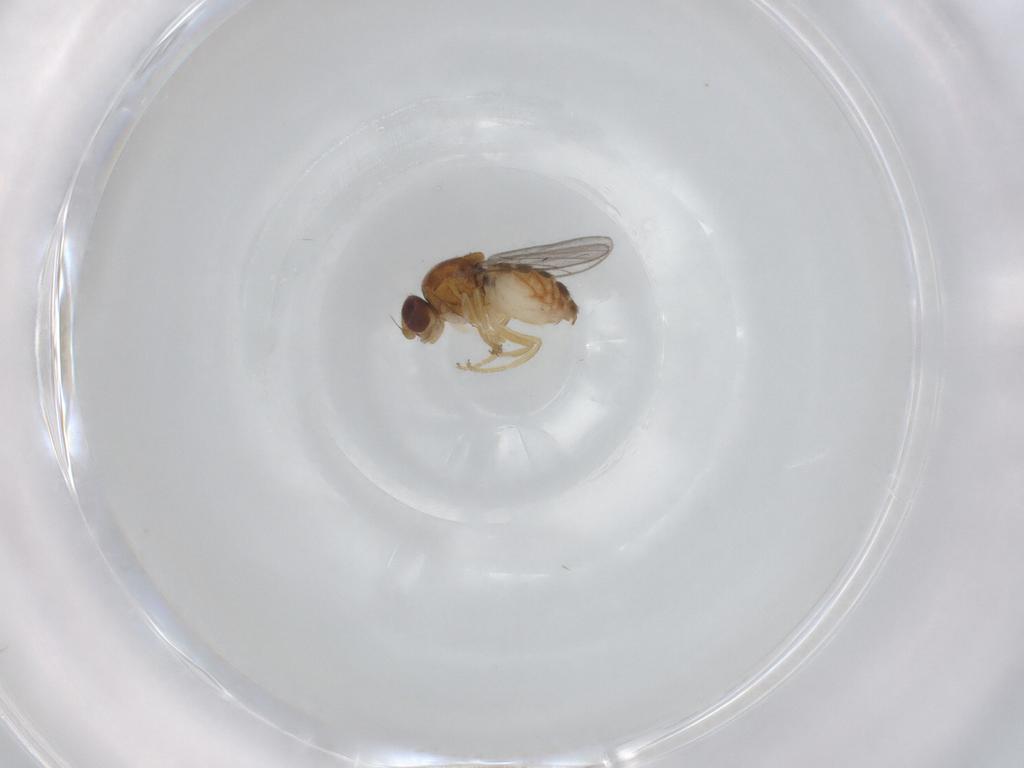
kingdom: Animalia
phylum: Arthropoda
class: Insecta
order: Diptera
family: Chloropidae
